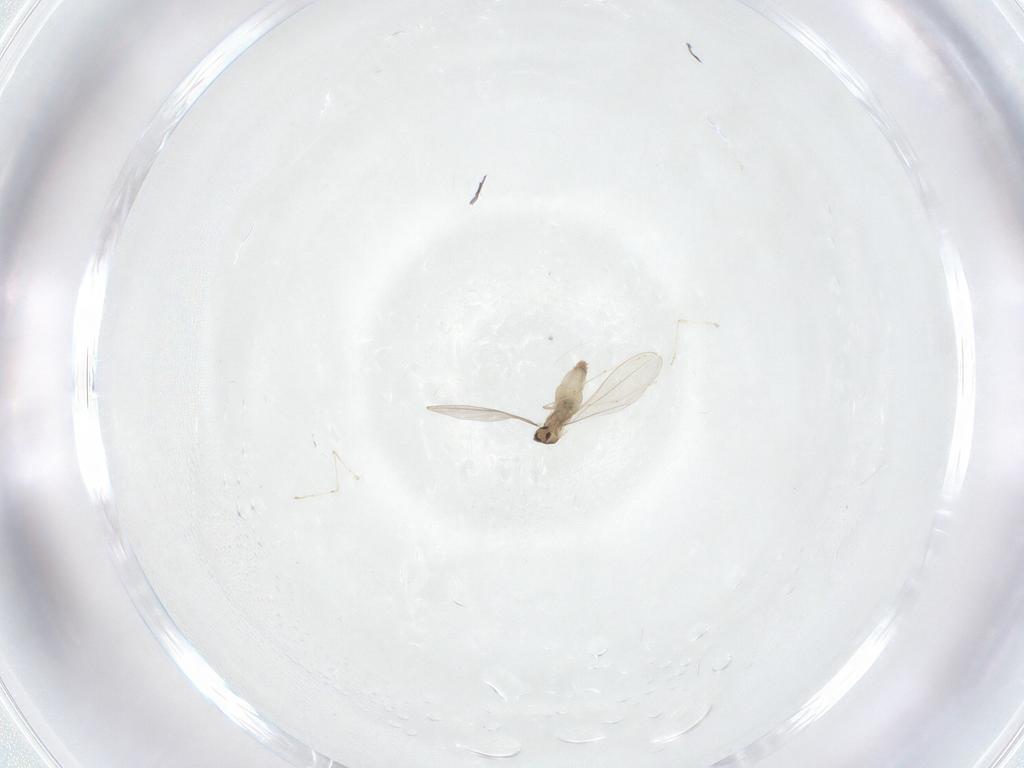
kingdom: Animalia
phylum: Arthropoda
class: Insecta
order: Diptera
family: Cecidomyiidae
